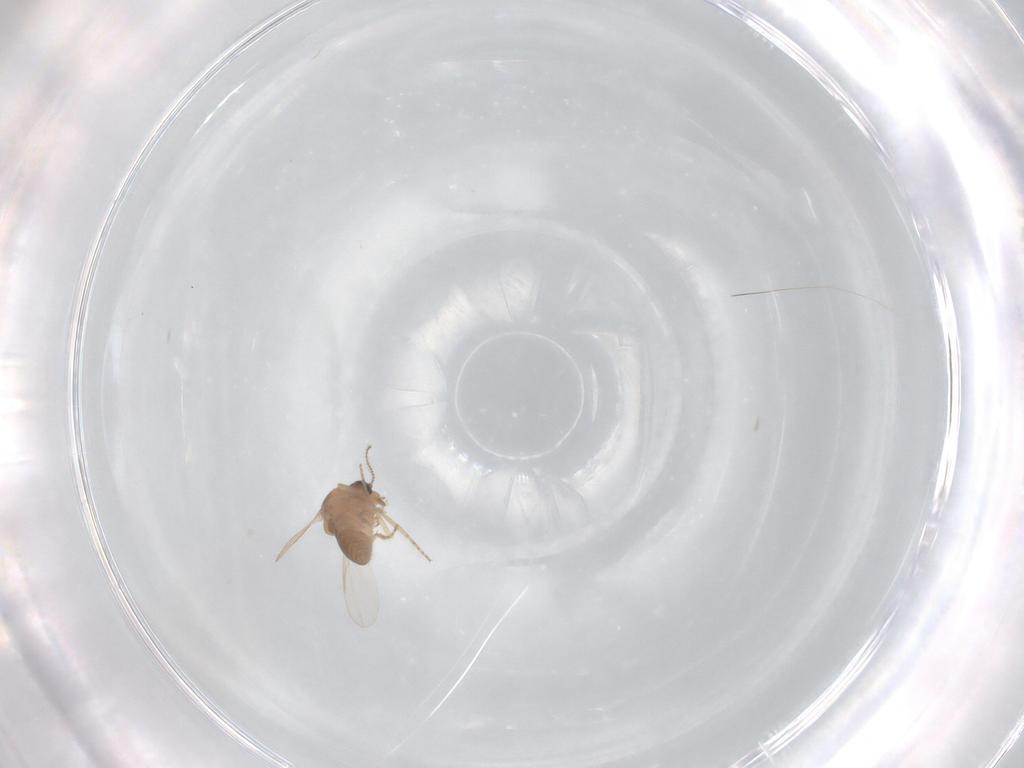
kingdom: Animalia
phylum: Arthropoda
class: Insecta
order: Diptera
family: Ceratopogonidae
